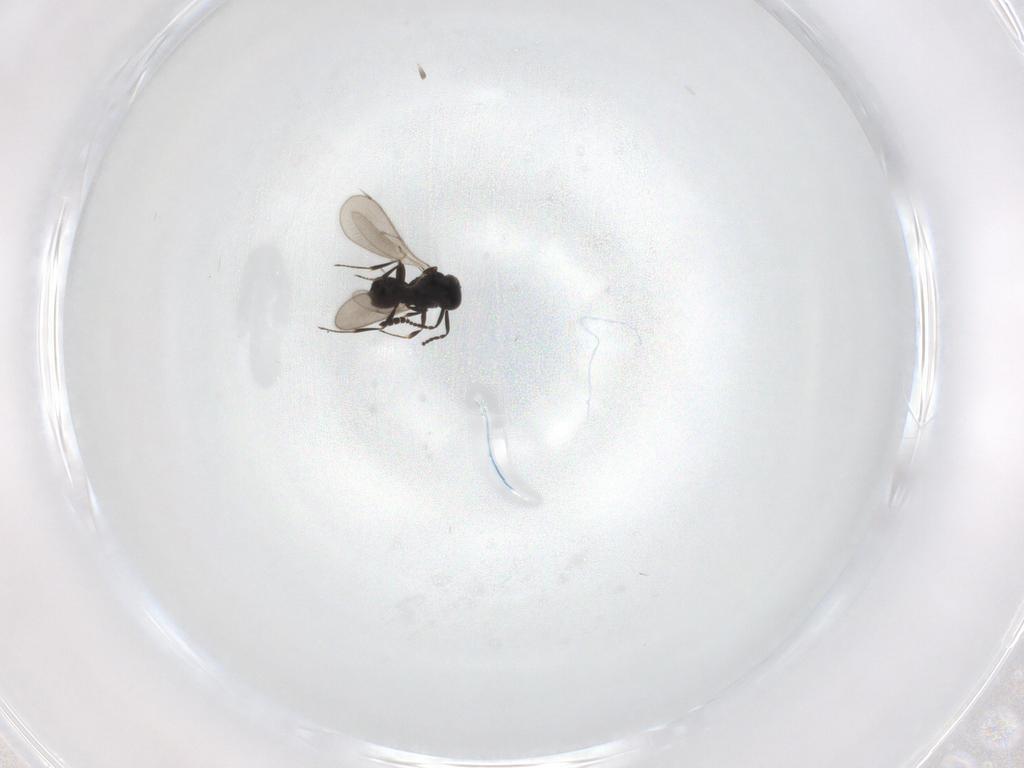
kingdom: Animalia
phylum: Arthropoda
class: Insecta
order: Hymenoptera
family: Scelionidae
